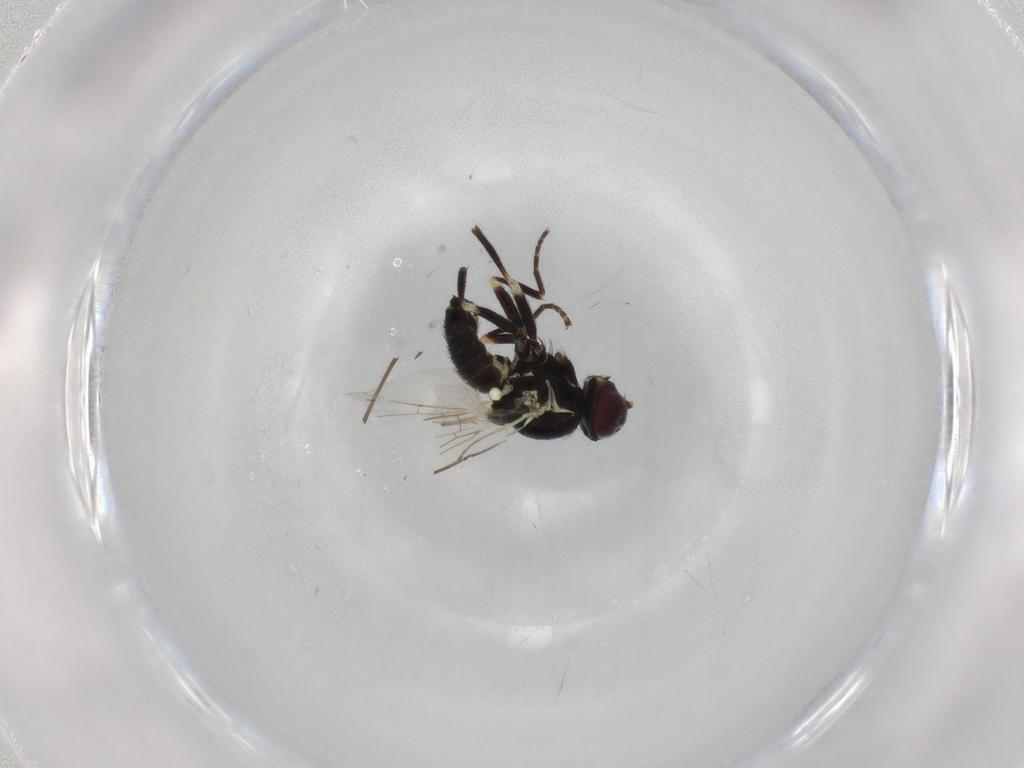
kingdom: Animalia
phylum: Arthropoda
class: Insecta
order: Diptera
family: Agromyzidae
